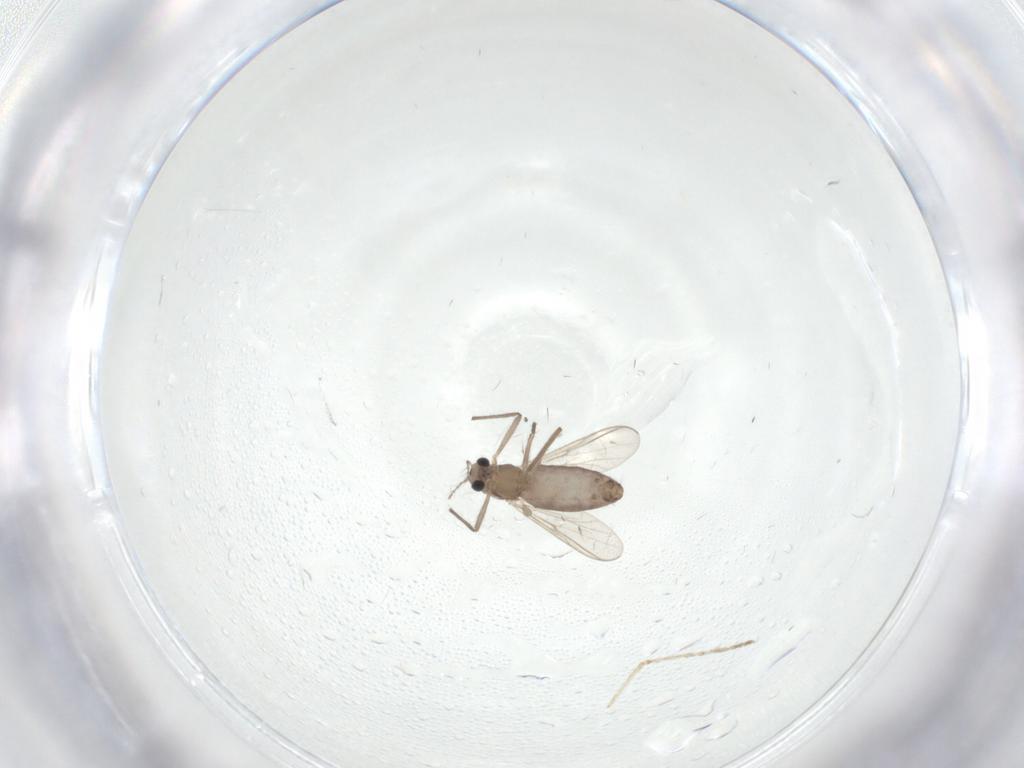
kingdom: Animalia
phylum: Arthropoda
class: Insecta
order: Diptera
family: Chironomidae
